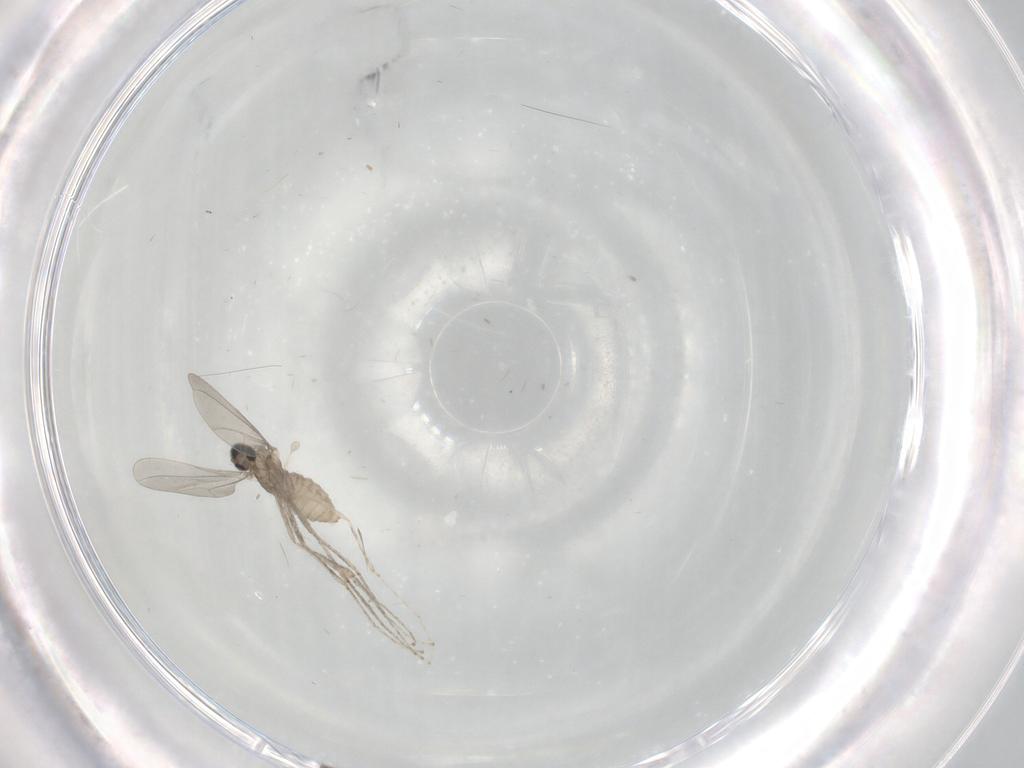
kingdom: Animalia
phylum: Arthropoda
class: Insecta
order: Diptera
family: Chironomidae
